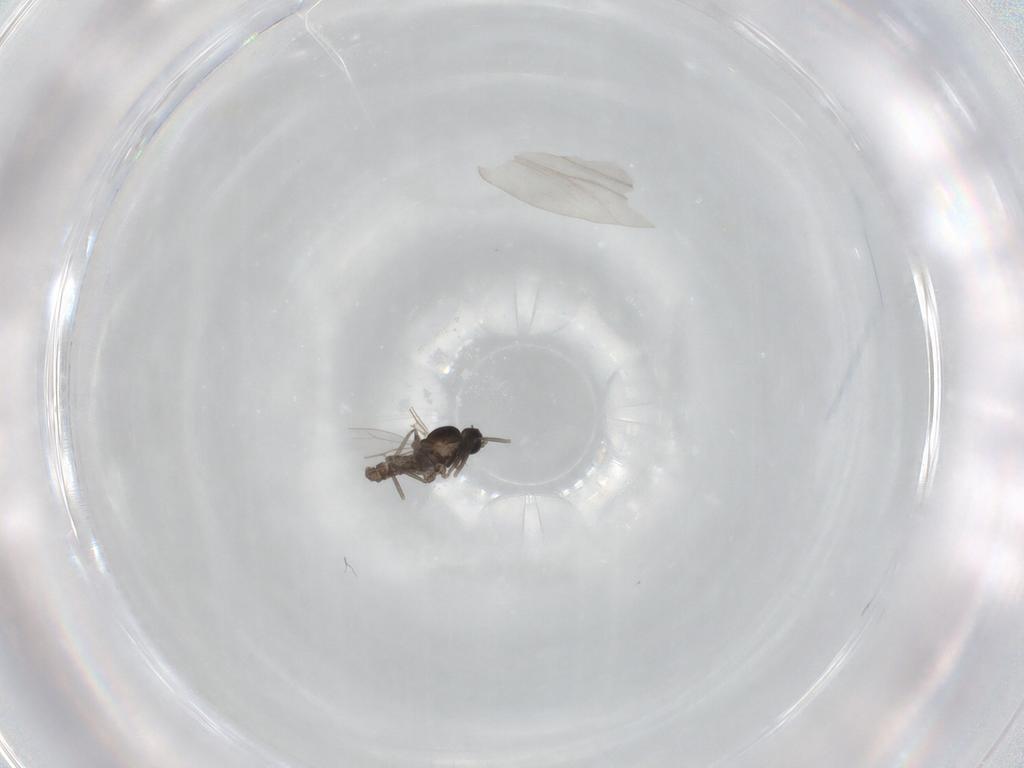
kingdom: Animalia
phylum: Arthropoda
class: Insecta
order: Diptera
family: Cecidomyiidae
